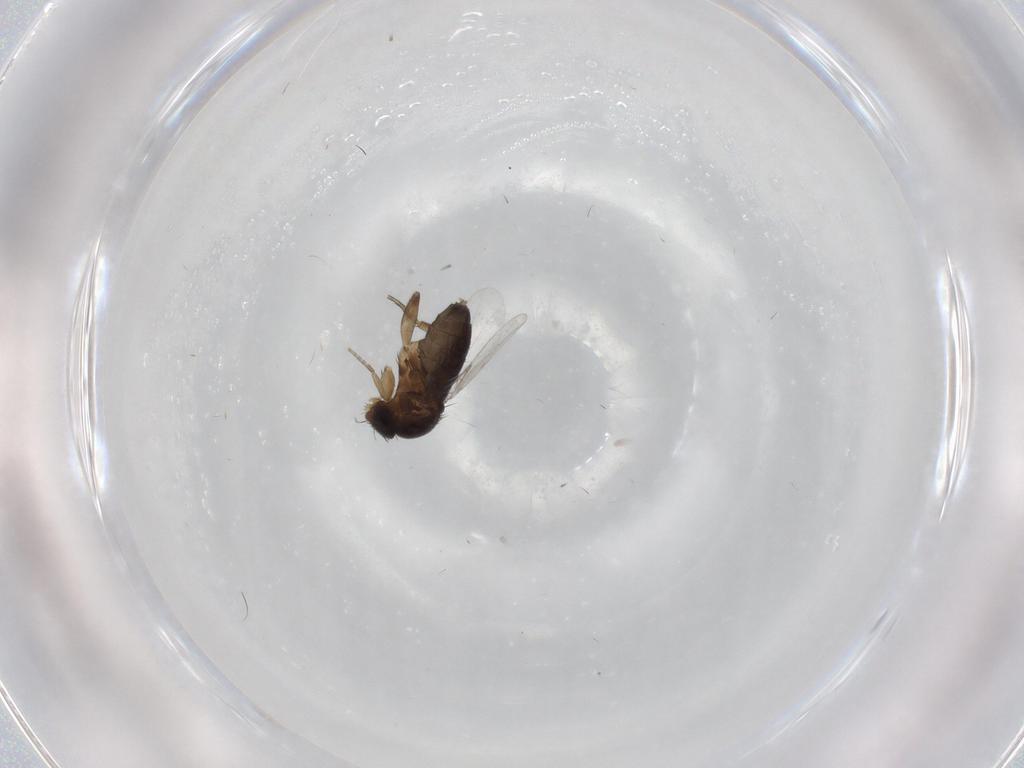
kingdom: Animalia
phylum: Arthropoda
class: Insecta
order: Diptera
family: Phoridae
